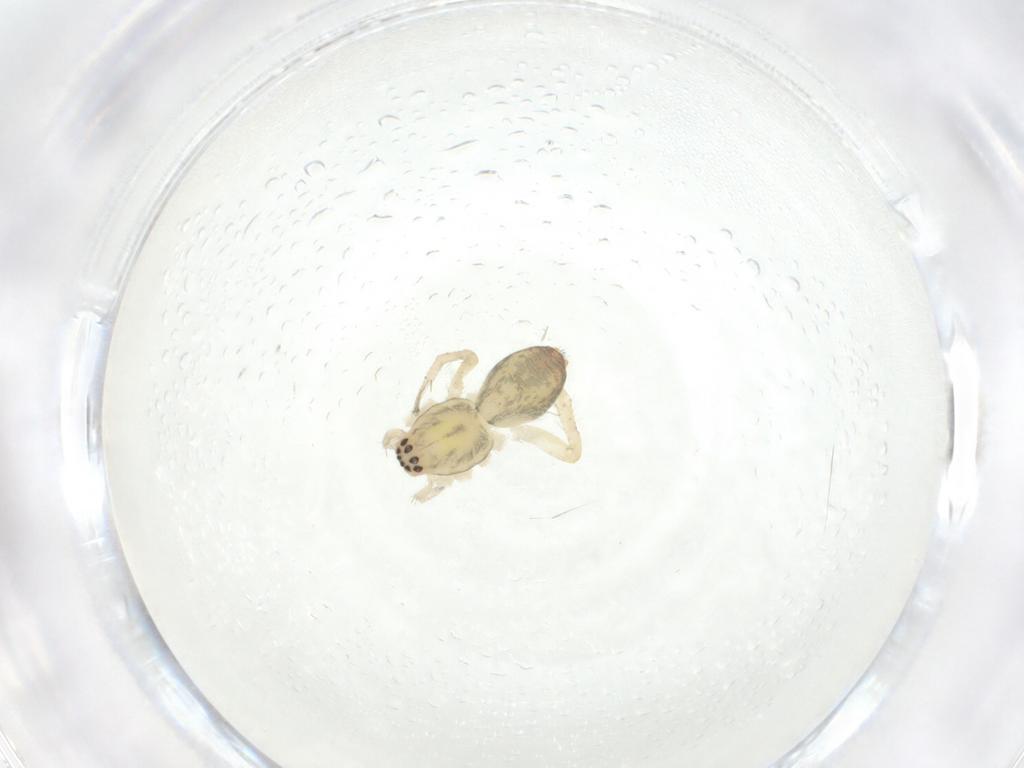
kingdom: Animalia
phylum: Arthropoda
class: Arachnida
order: Araneae
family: Anyphaenidae
